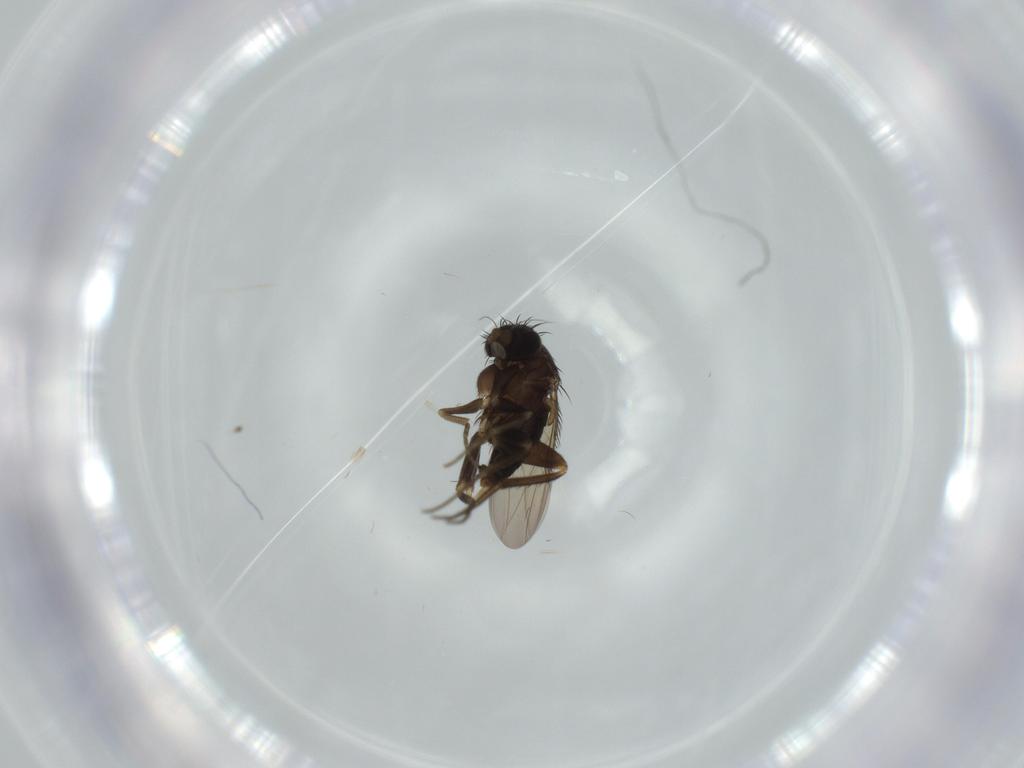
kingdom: Animalia
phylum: Arthropoda
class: Insecta
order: Diptera
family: Phoridae
